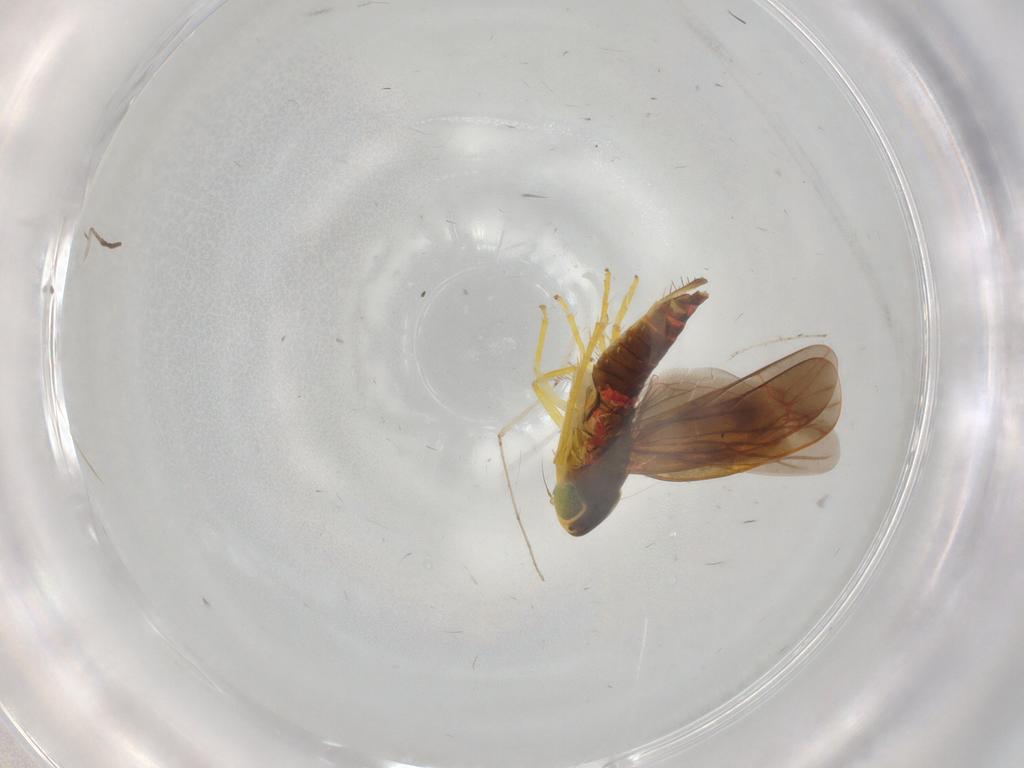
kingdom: Animalia
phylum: Arthropoda
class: Insecta
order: Hemiptera
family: Cicadellidae
